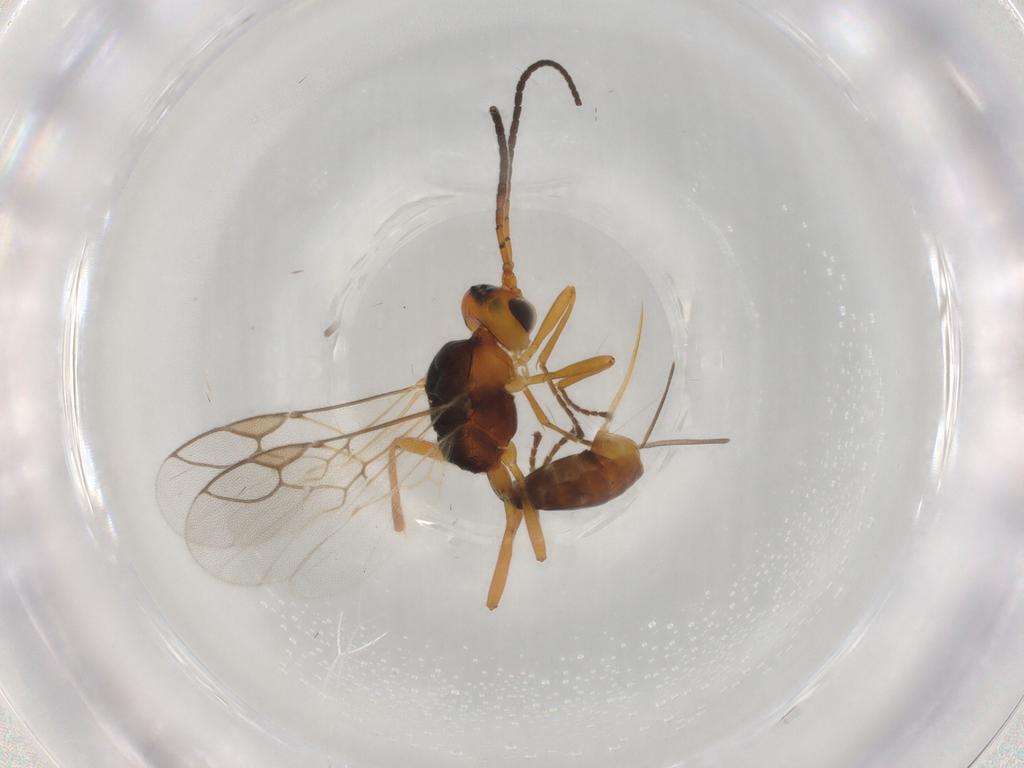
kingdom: Animalia
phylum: Arthropoda
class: Insecta
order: Hymenoptera
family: Braconidae
